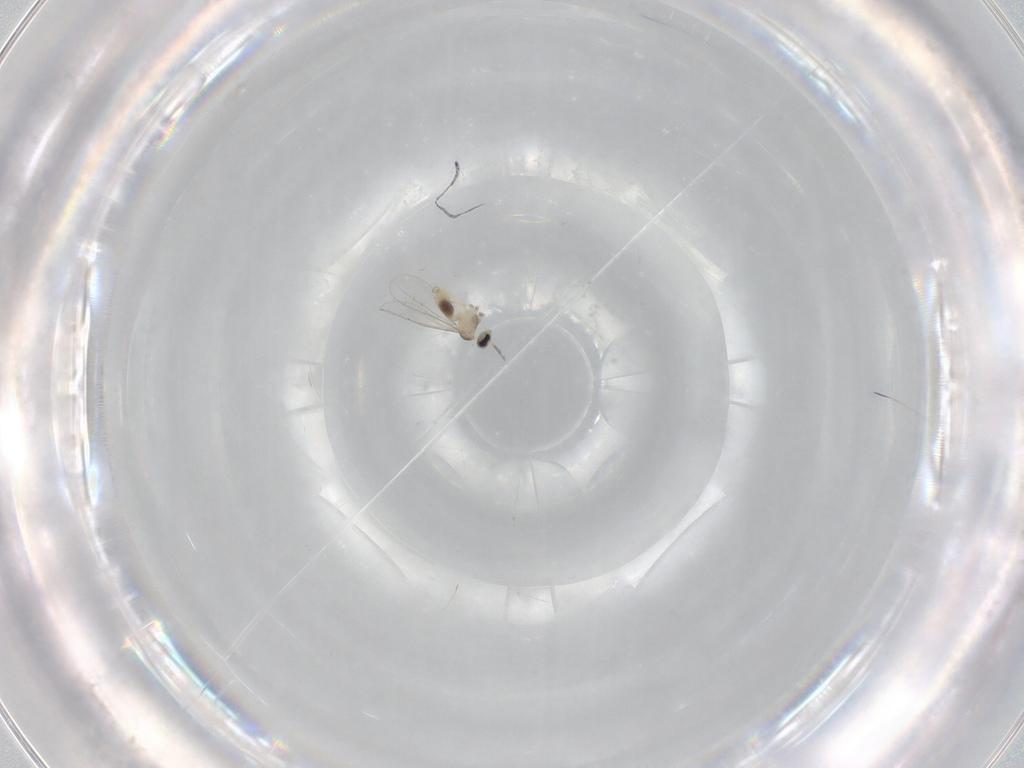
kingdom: Animalia
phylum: Arthropoda
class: Insecta
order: Diptera
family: Cecidomyiidae
